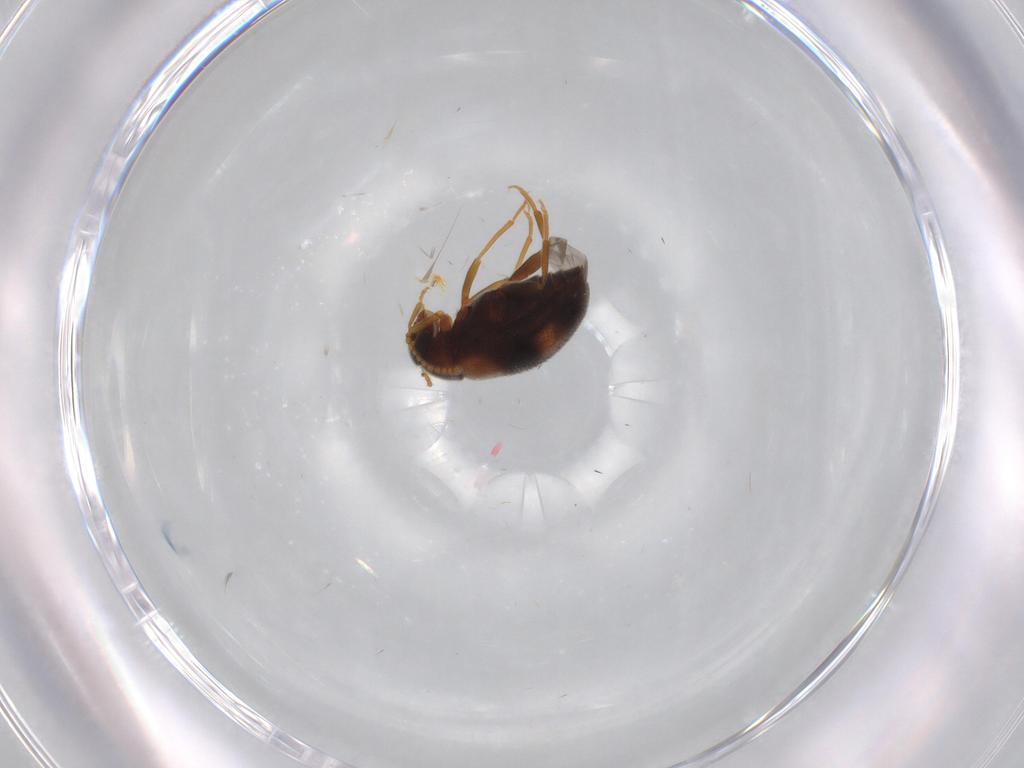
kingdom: Animalia
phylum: Arthropoda
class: Insecta
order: Coleoptera
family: Aderidae
